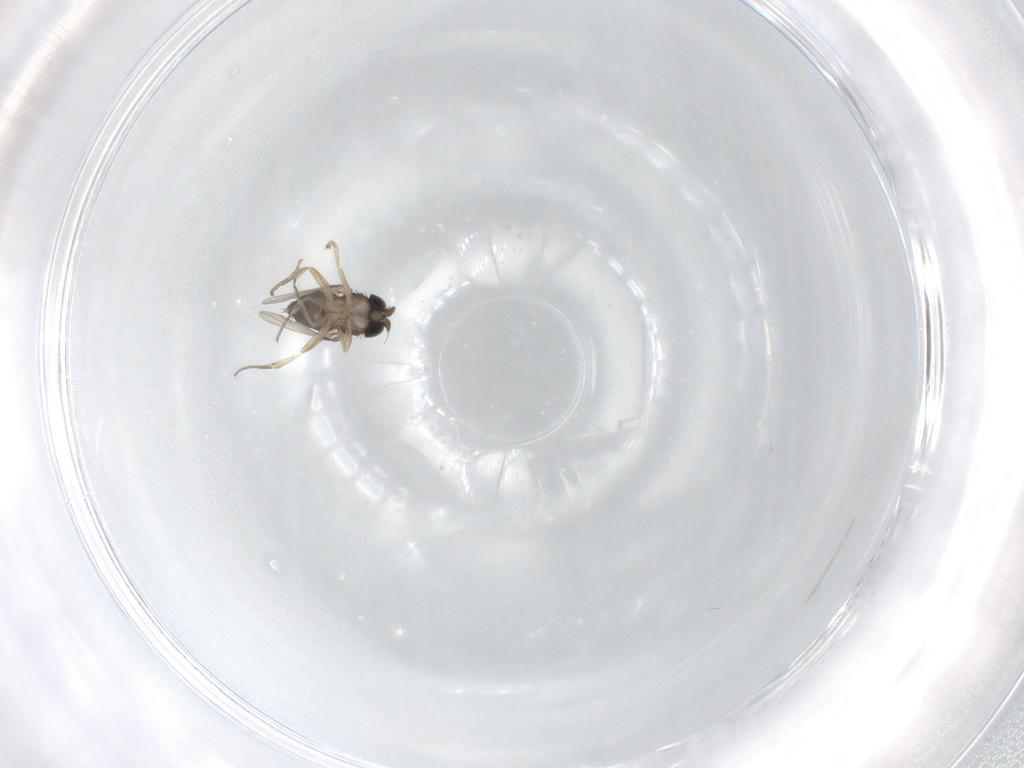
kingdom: Animalia
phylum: Arthropoda
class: Insecta
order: Diptera
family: Phoridae
